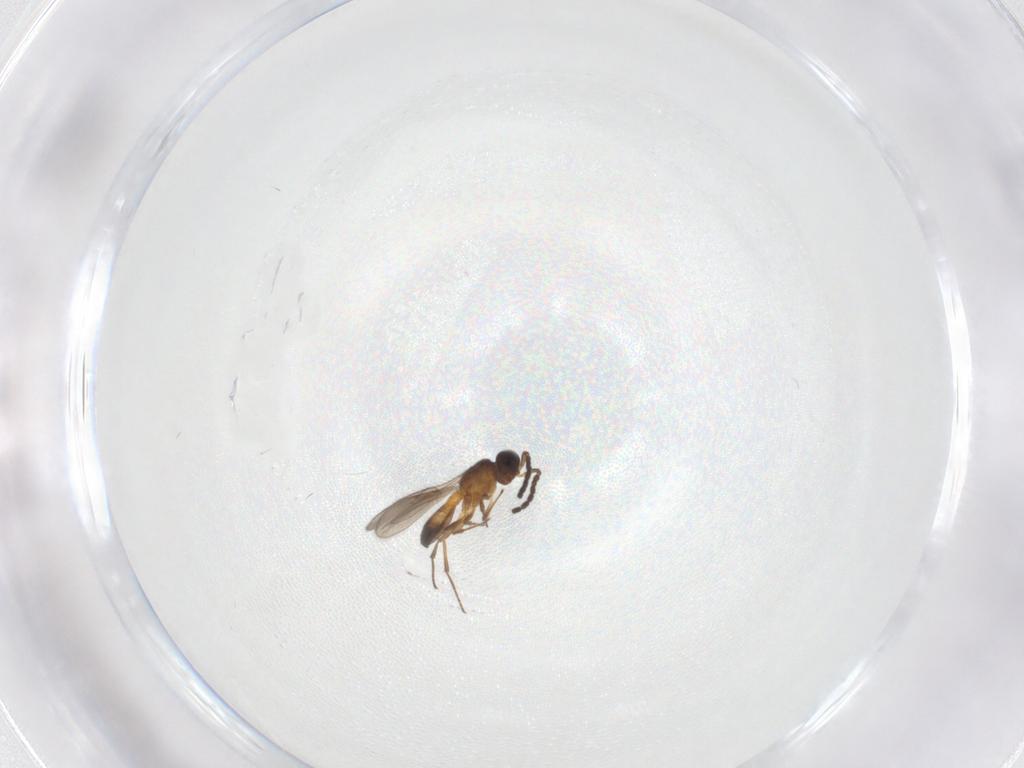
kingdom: Animalia
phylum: Arthropoda
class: Insecta
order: Hymenoptera
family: Scelionidae
